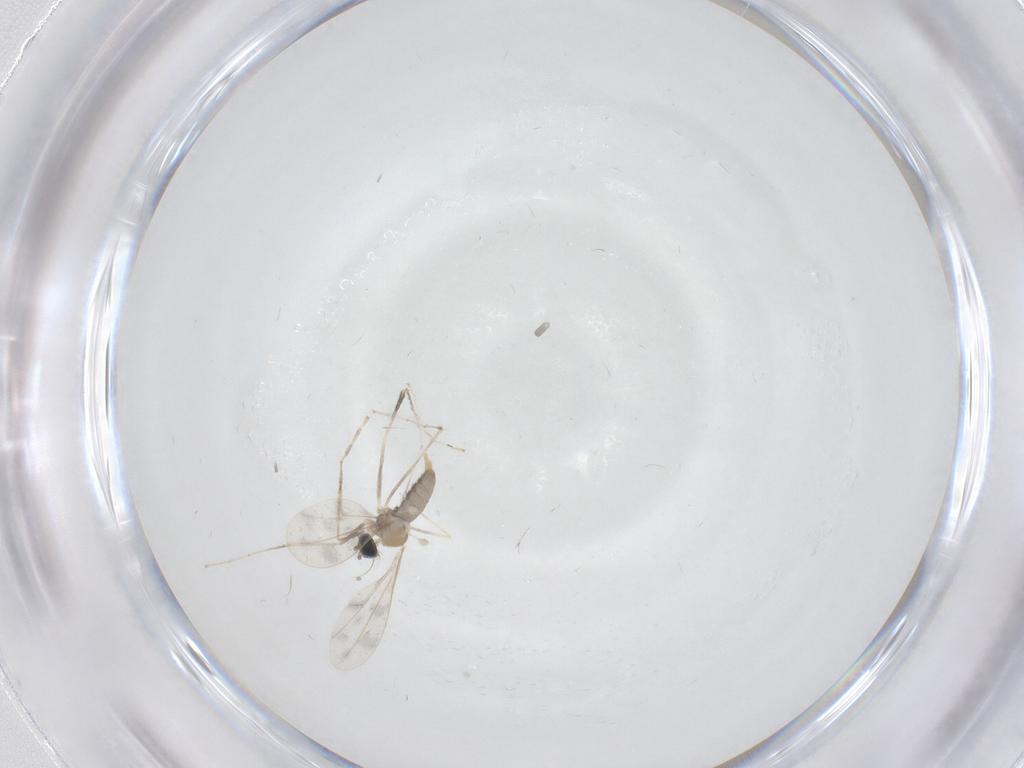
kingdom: Animalia
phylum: Arthropoda
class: Insecta
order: Diptera
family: Cecidomyiidae
